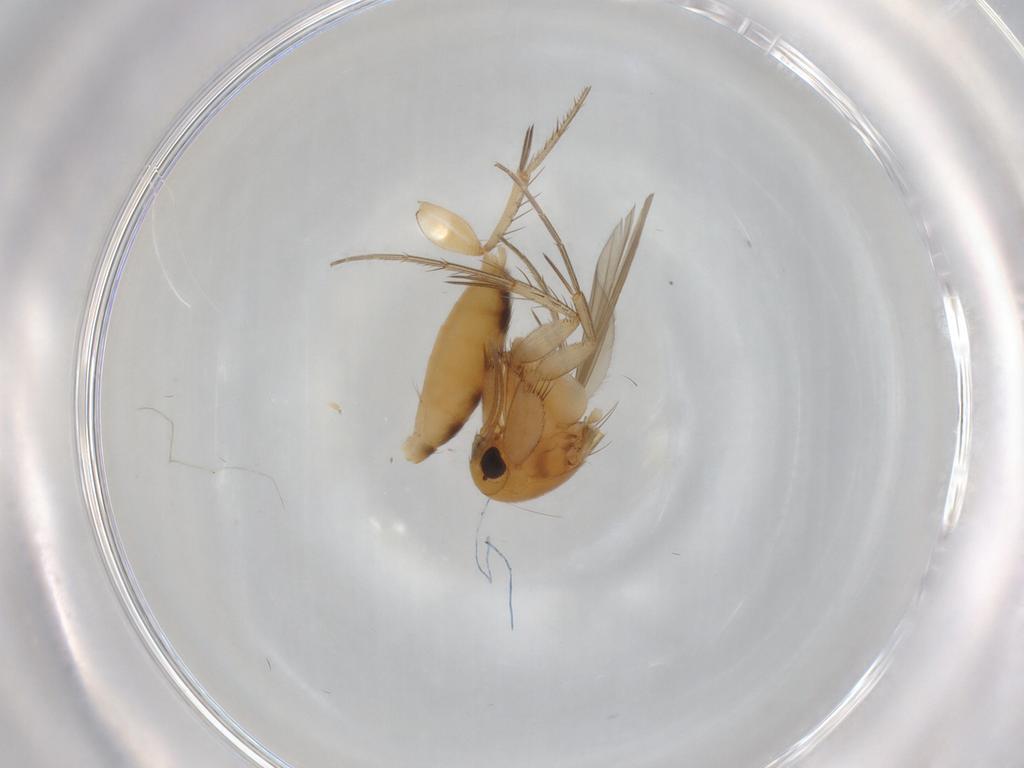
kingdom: Animalia
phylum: Arthropoda
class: Insecta
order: Diptera
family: Mycetophilidae
